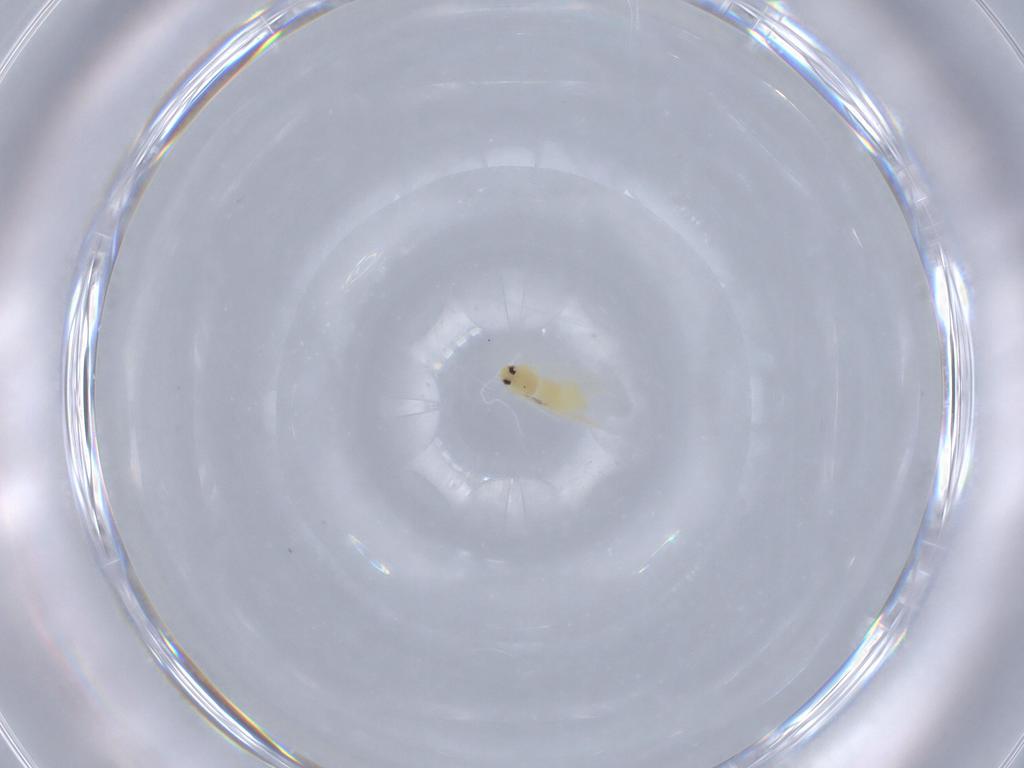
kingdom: Animalia
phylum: Arthropoda
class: Insecta
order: Hemiptera
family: Aleyrodidae
